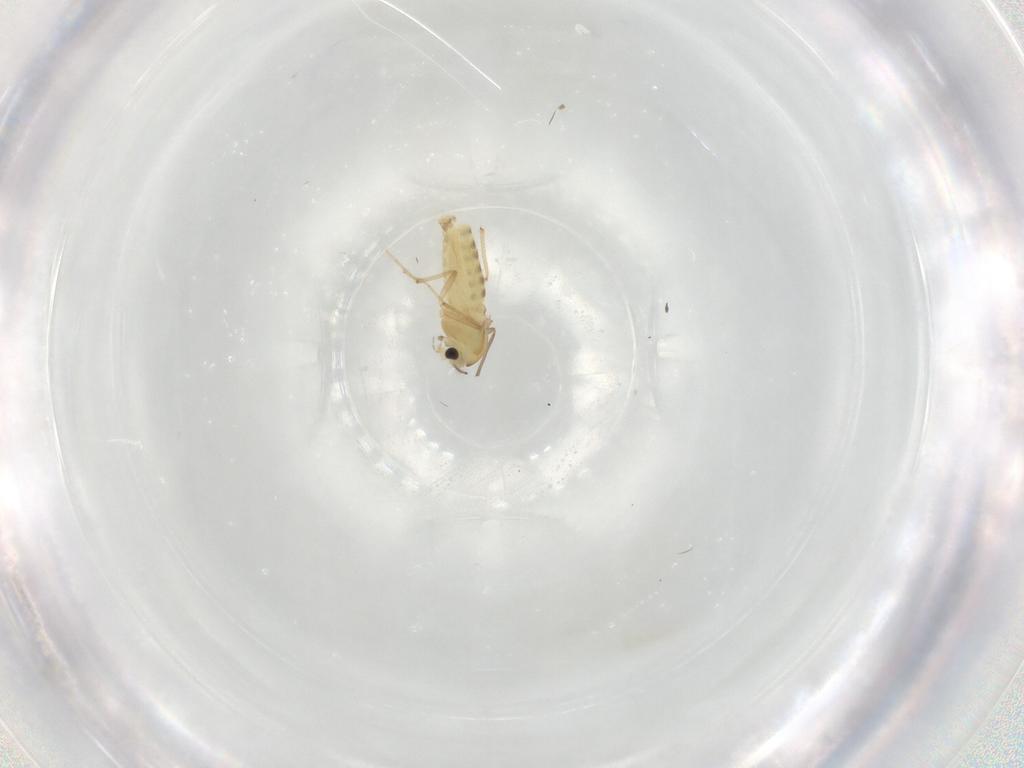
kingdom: Animalia
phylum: Arthropoda
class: Insecta
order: Diptera
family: Chironomidae
